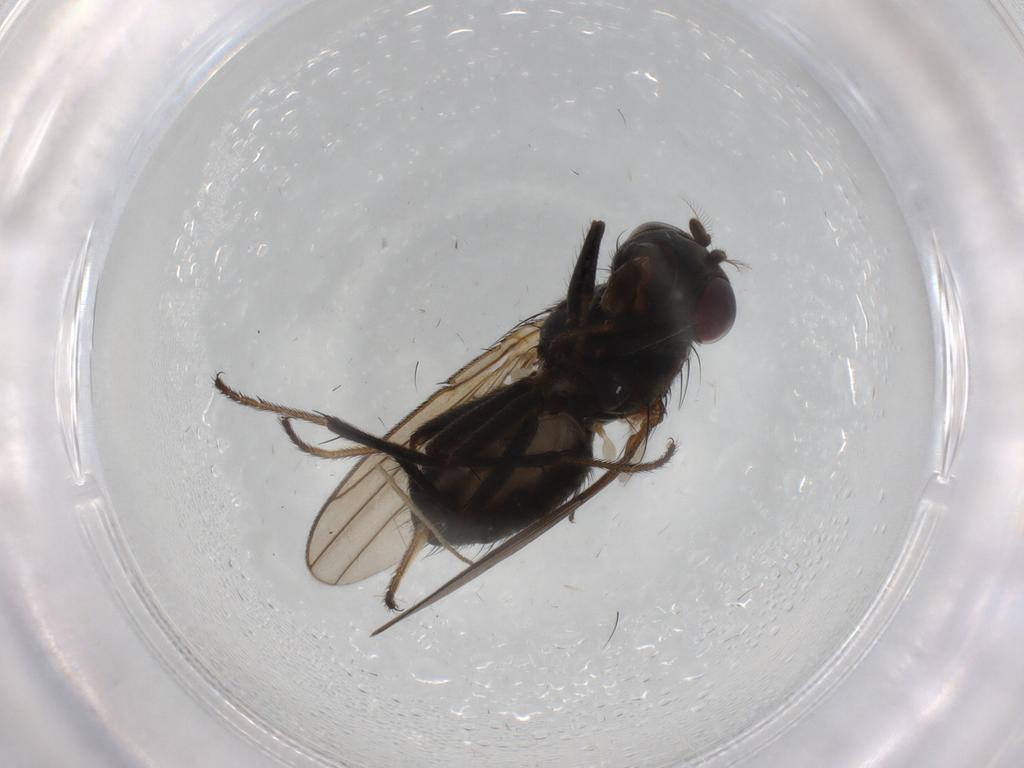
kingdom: Animalia
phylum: Arthropoda
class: Insecta
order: Diptera
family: Ephydridae
